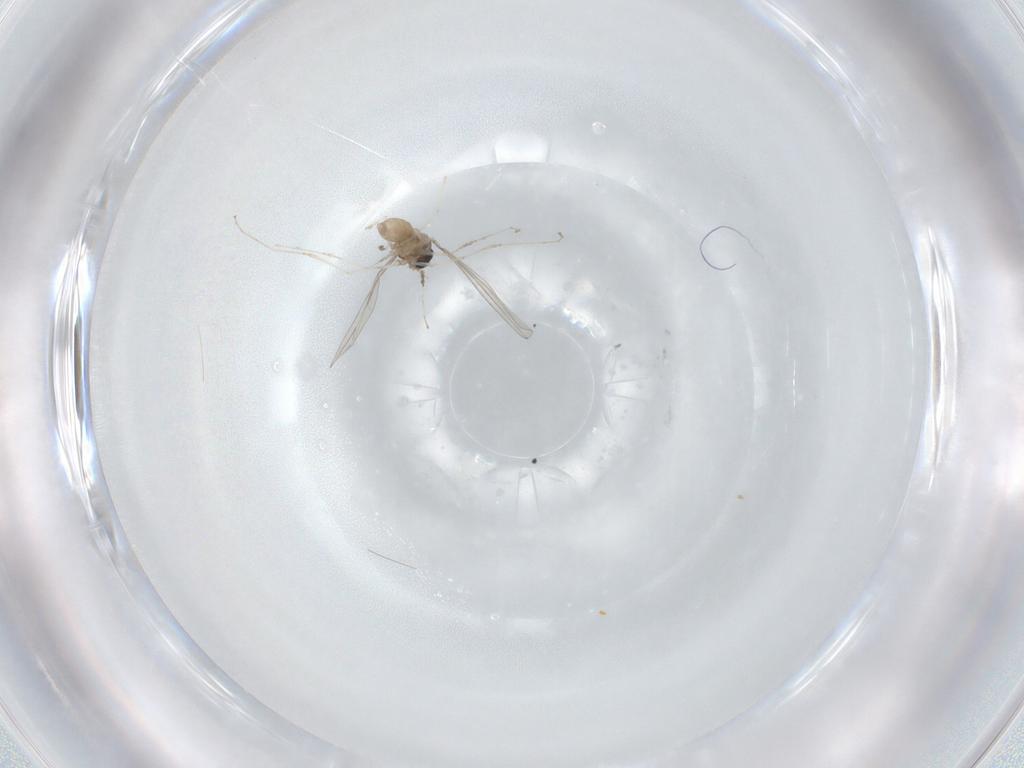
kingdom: Animalia
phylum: Arthropoda
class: Insecta
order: Diptera
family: Cecidomyiidae
